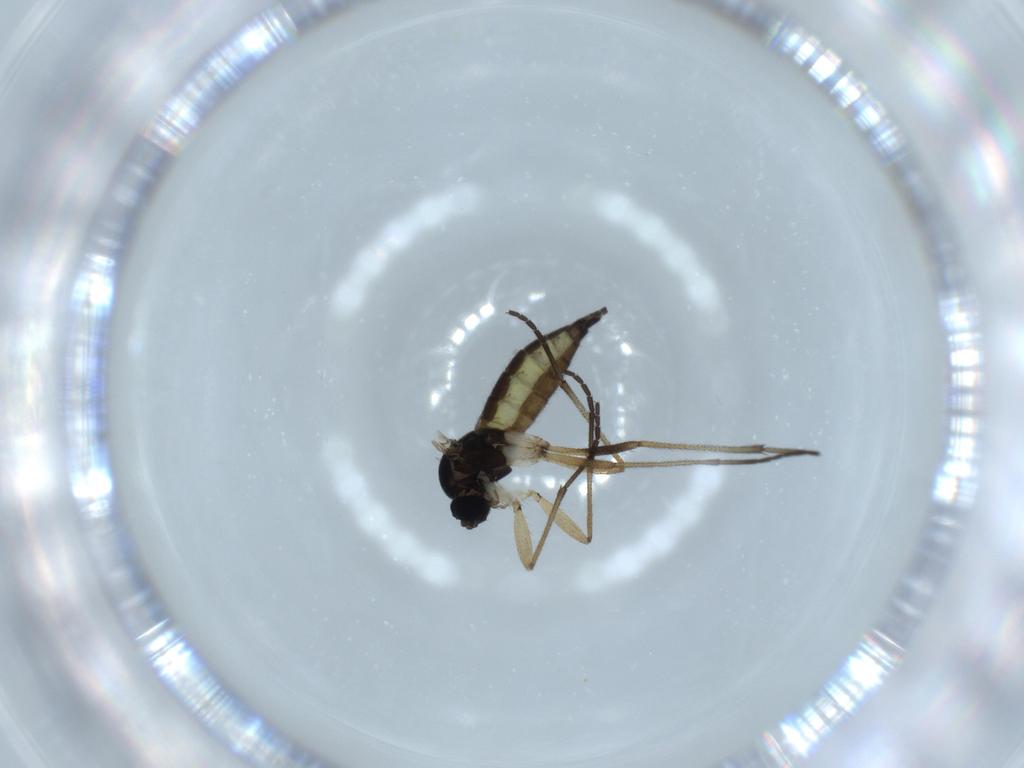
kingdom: Animalia
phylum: Arthropoda
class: Insecta
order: Diptera
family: Sciaridae
